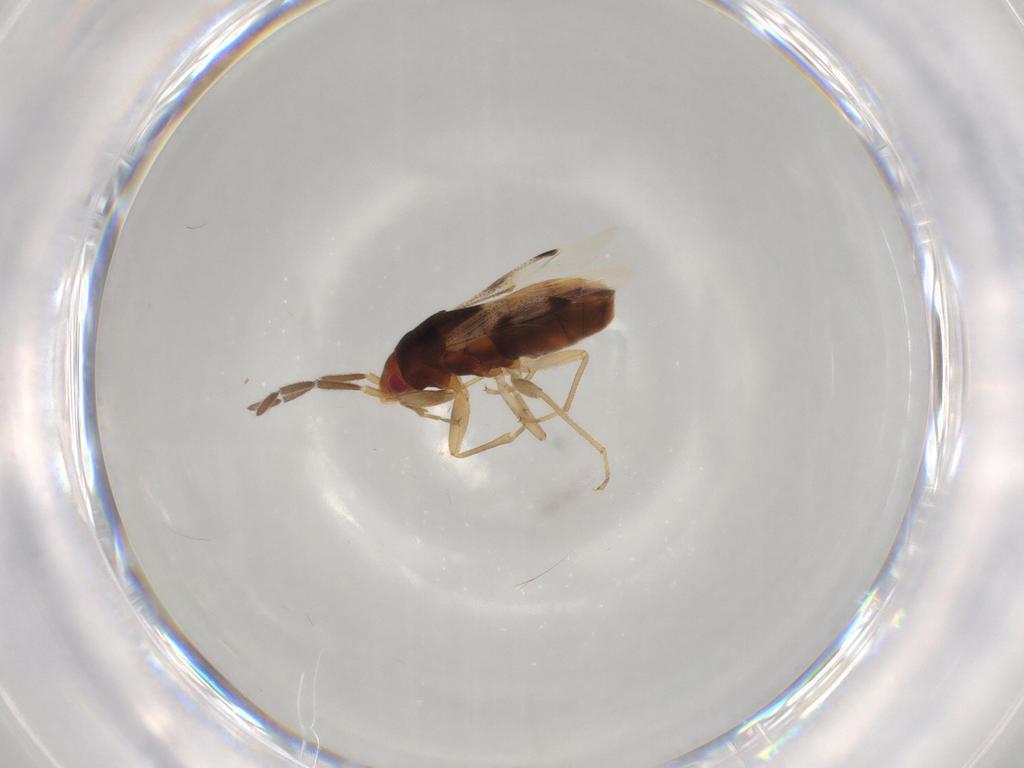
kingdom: Animalia
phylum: Arthropoda
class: Insecta
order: Hemiptera
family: Rhyparochromidae
